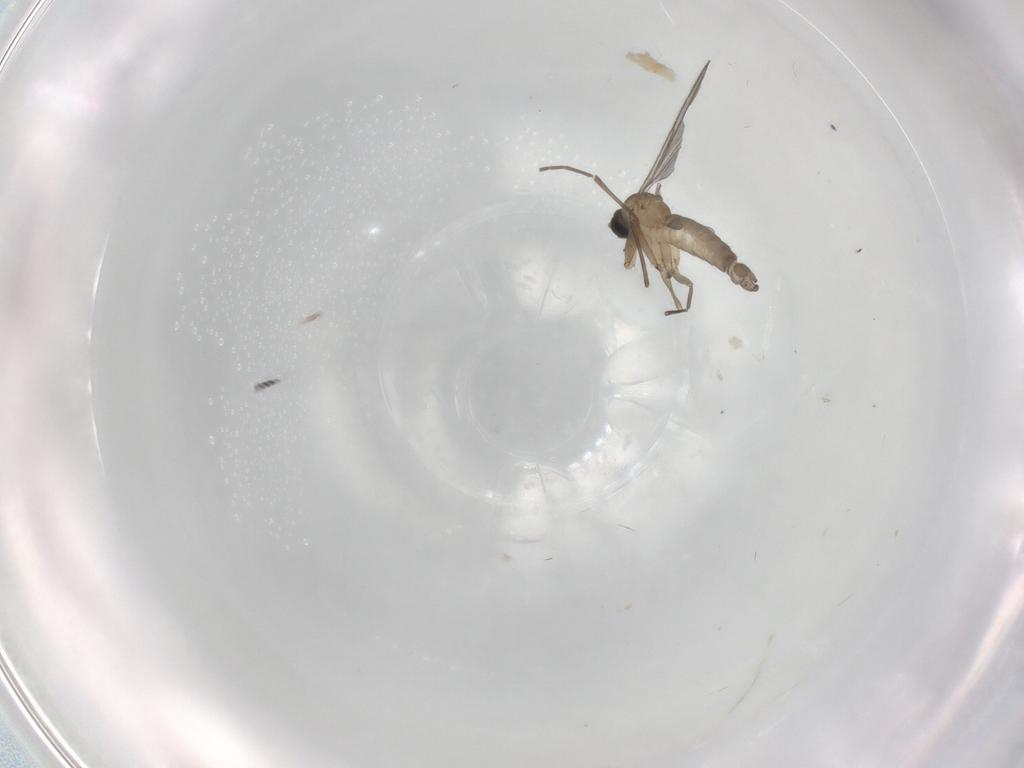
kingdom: Animalia
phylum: Arthropoda
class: Insecta
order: Diptera
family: Sciaridae
